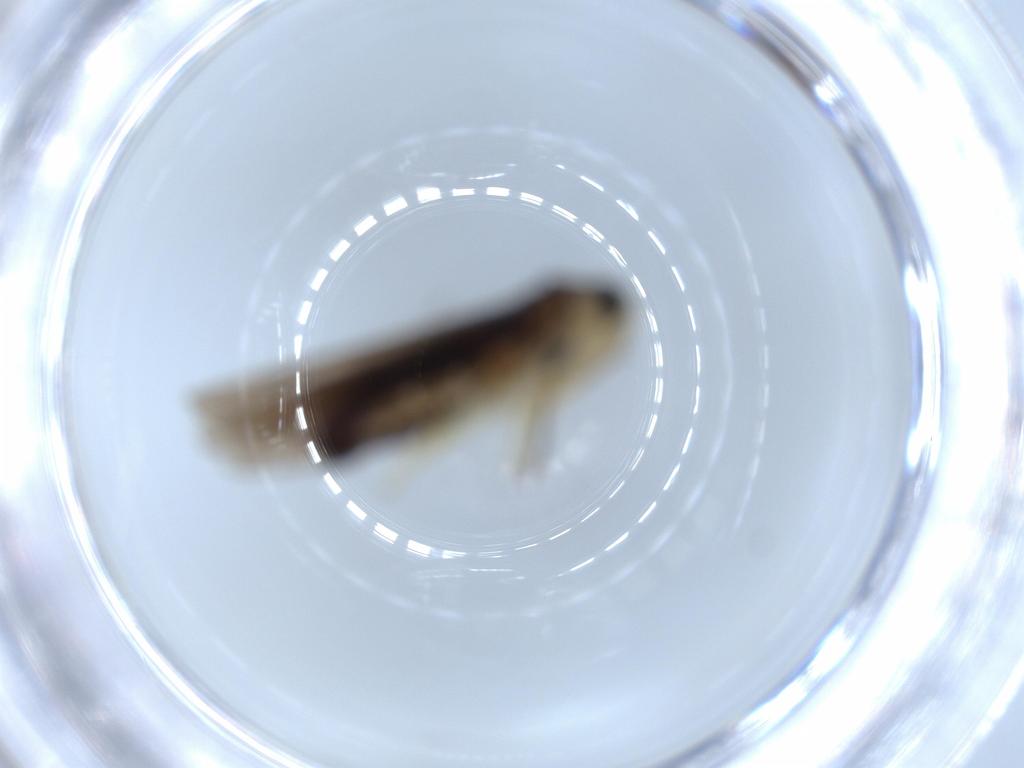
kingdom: Animalia
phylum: Arthropoda
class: Insecta
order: Hemiptera
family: Cicadellidae
